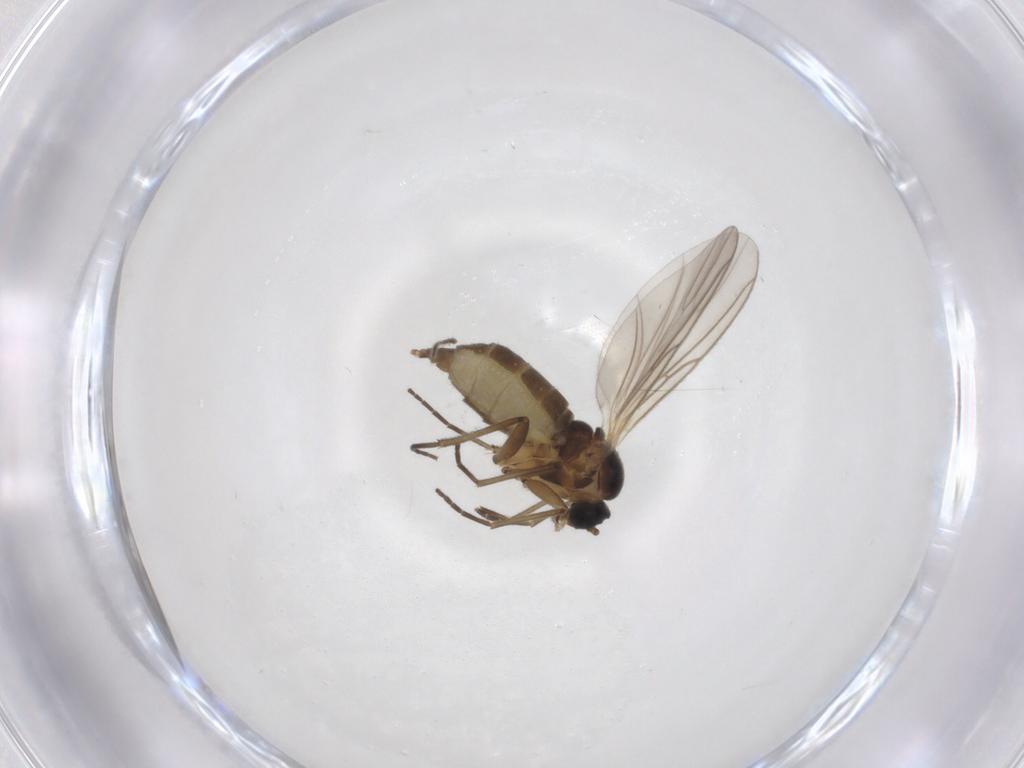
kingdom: Animalia
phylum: Arthropoda
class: Insecta
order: Diptera
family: Ceratopogonidae
